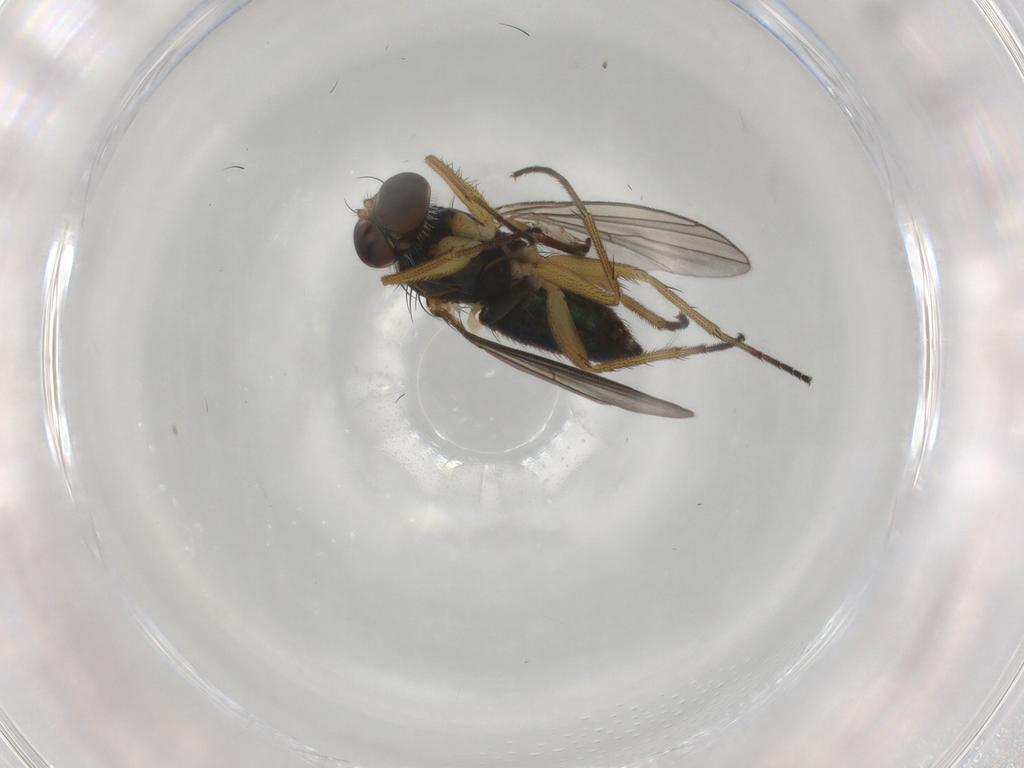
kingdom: Animalia
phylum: Arthropoda
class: Insecta
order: Diptera
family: Dolichopodidae
